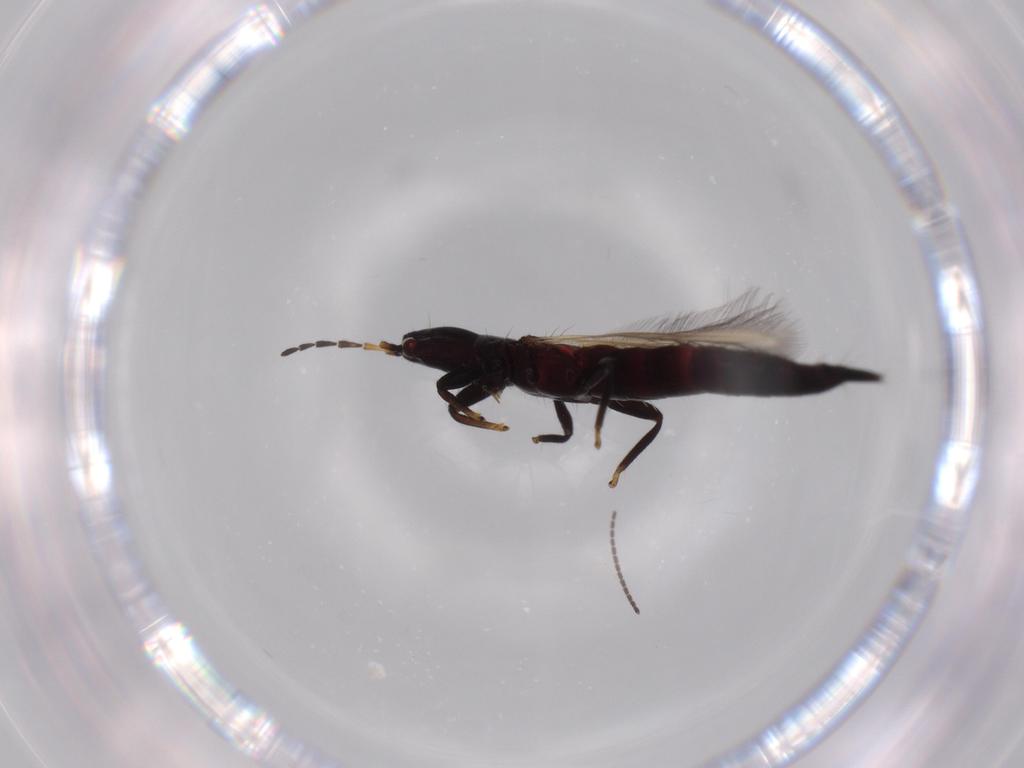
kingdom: Animalia
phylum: Arthropoda
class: Insecta
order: Thysanoptera
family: Phlaeothripidae
